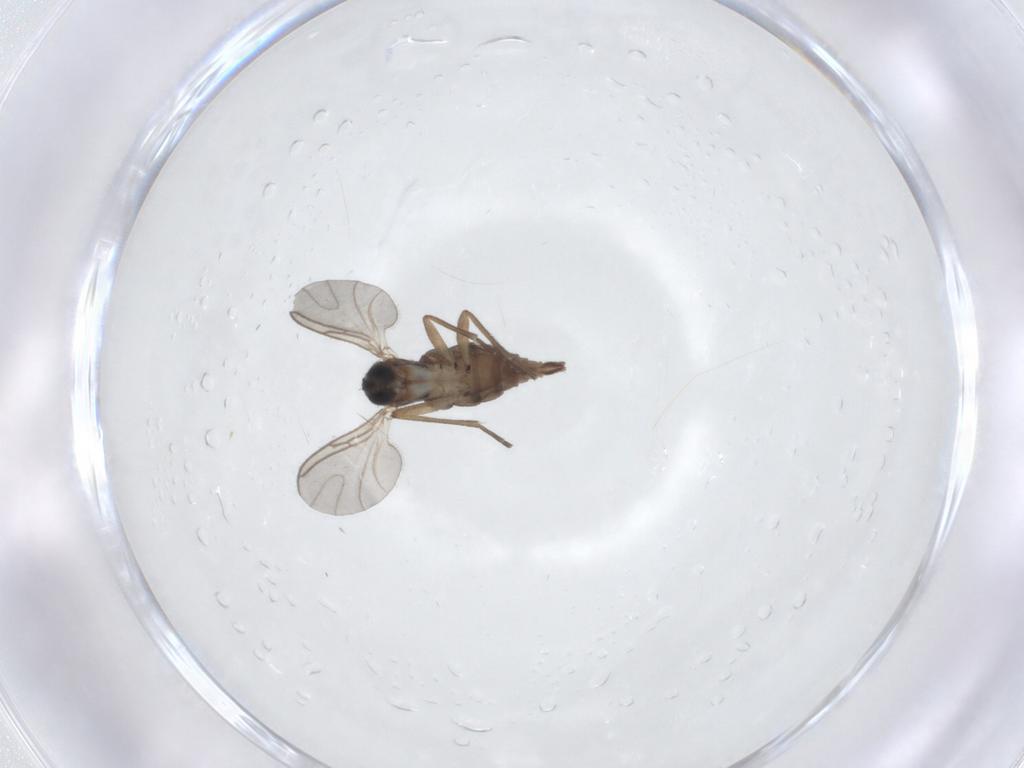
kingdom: Animalia
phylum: Arthropoda
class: Insecta
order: Diptera
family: Sciaridae
